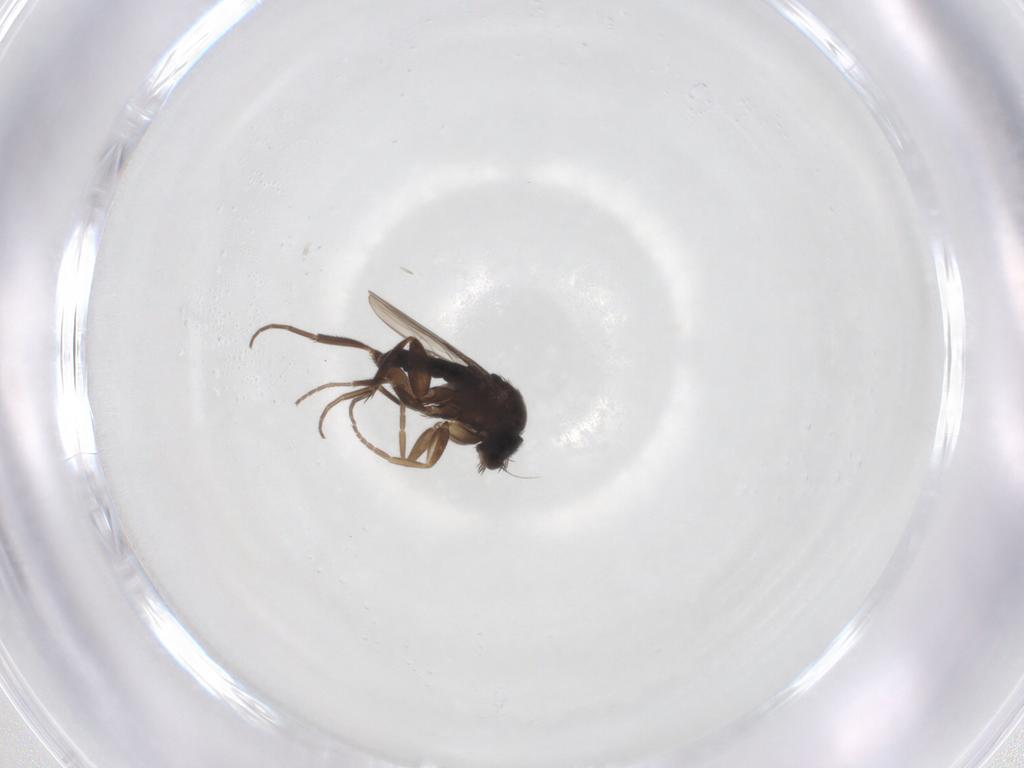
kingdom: Animalia
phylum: Arthropoda
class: Insecta
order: Diptera
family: Phoridae
